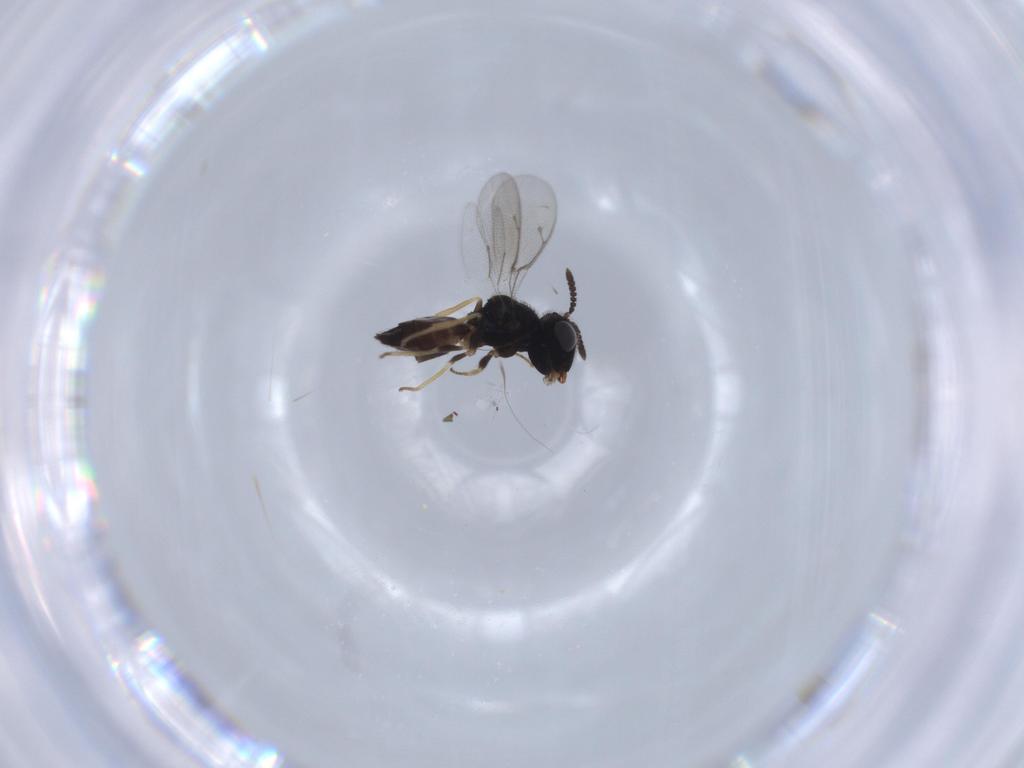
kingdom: Animalia
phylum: Arthropoda
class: Insecta
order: Hymenoptera
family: Pteromalidae
